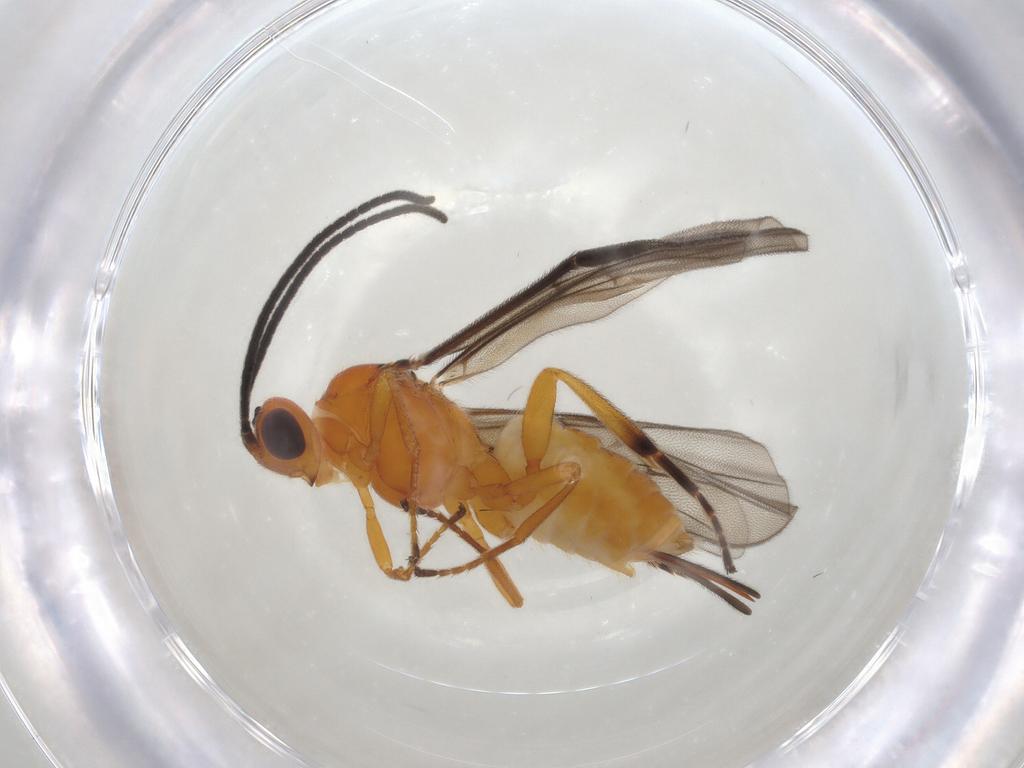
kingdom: Animalia
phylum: Arthropoda
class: Insecta
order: Hymenoptera
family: Braconidae
